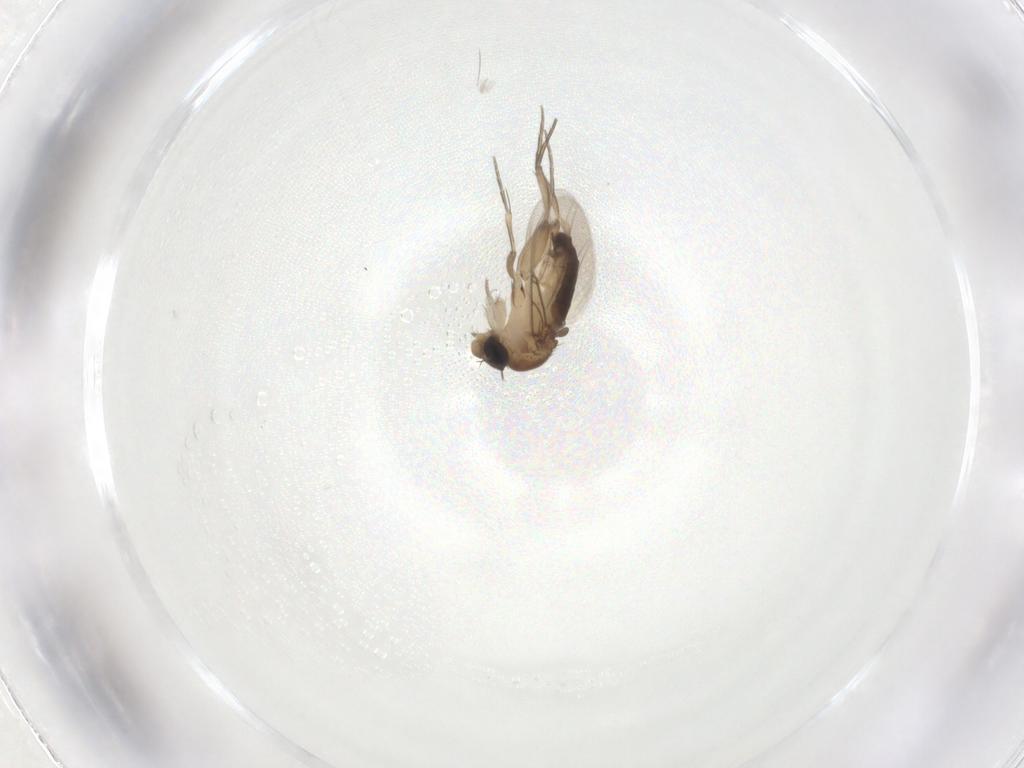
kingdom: Animalia
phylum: Arthropoda
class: Insecta
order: Diptera
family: Phoridae
